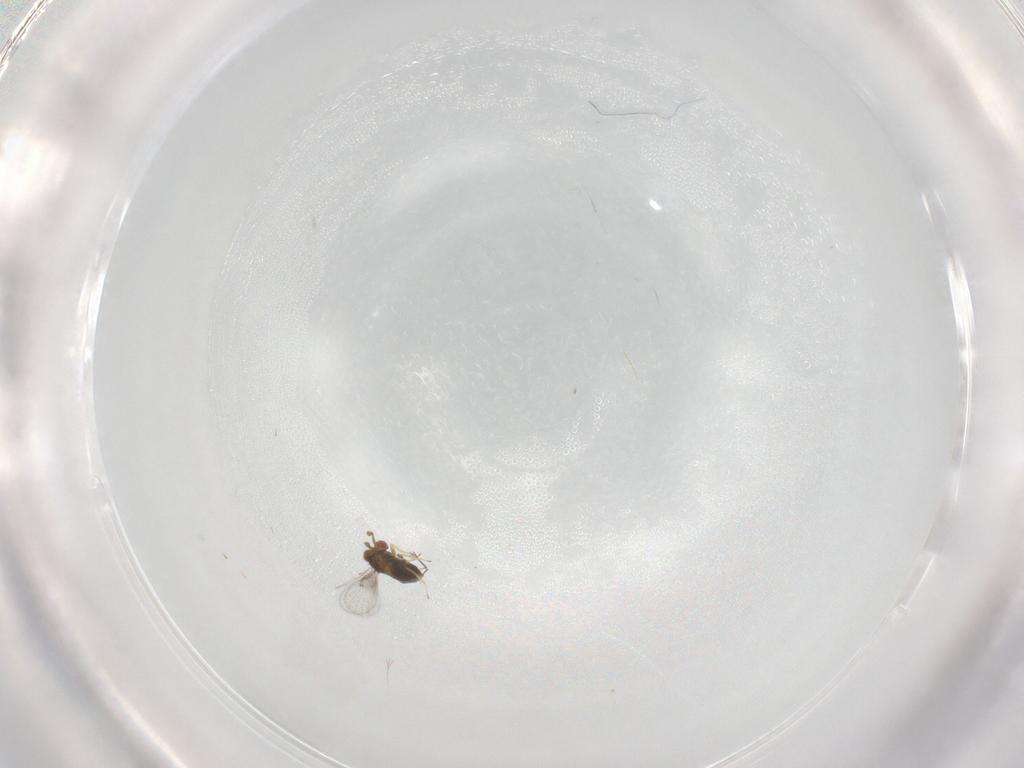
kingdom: Animalia
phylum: Arthropoda
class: Insecta
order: Hymenoptera
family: Trichogrammatidae
